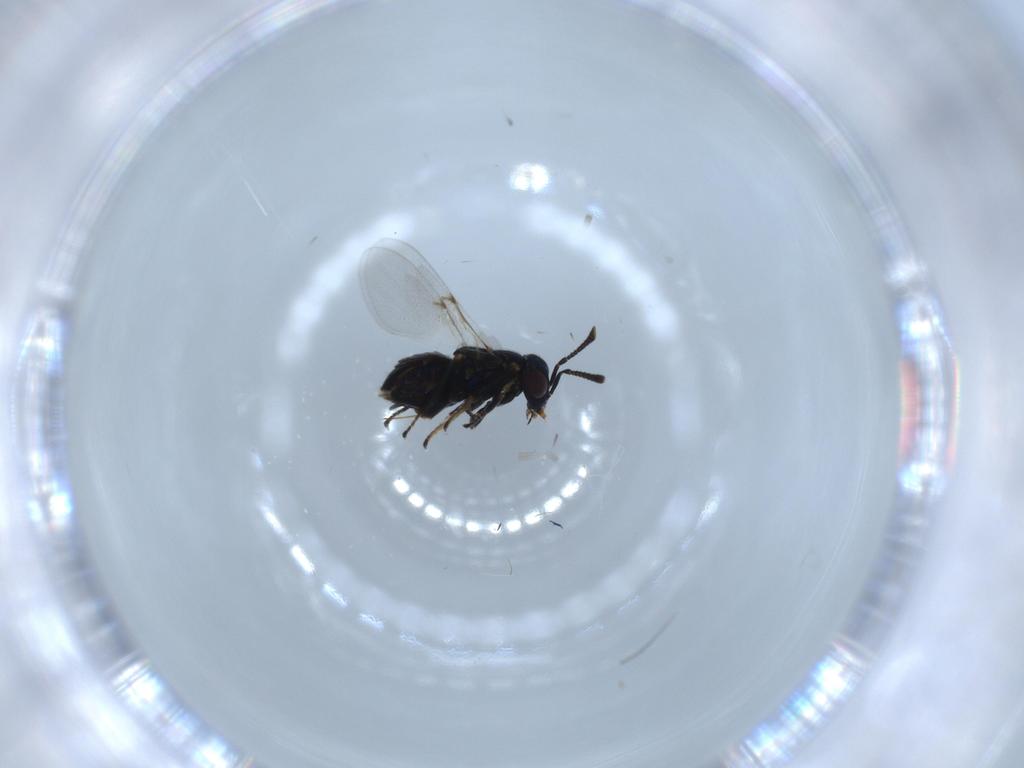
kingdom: Animalia
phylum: Arthropoda
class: Insecta
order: Hymenoptera
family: Encyrtidae
